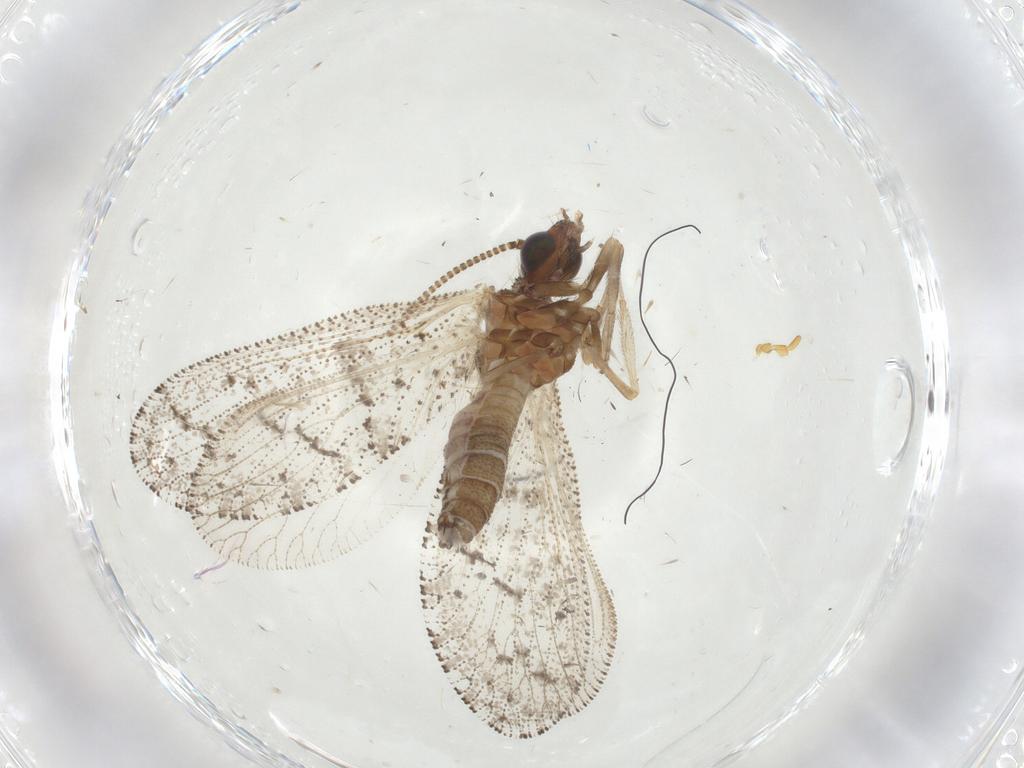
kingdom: Animalia
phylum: Arthropoda
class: Insecta
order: Neuroptera
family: Hemerobiidae
